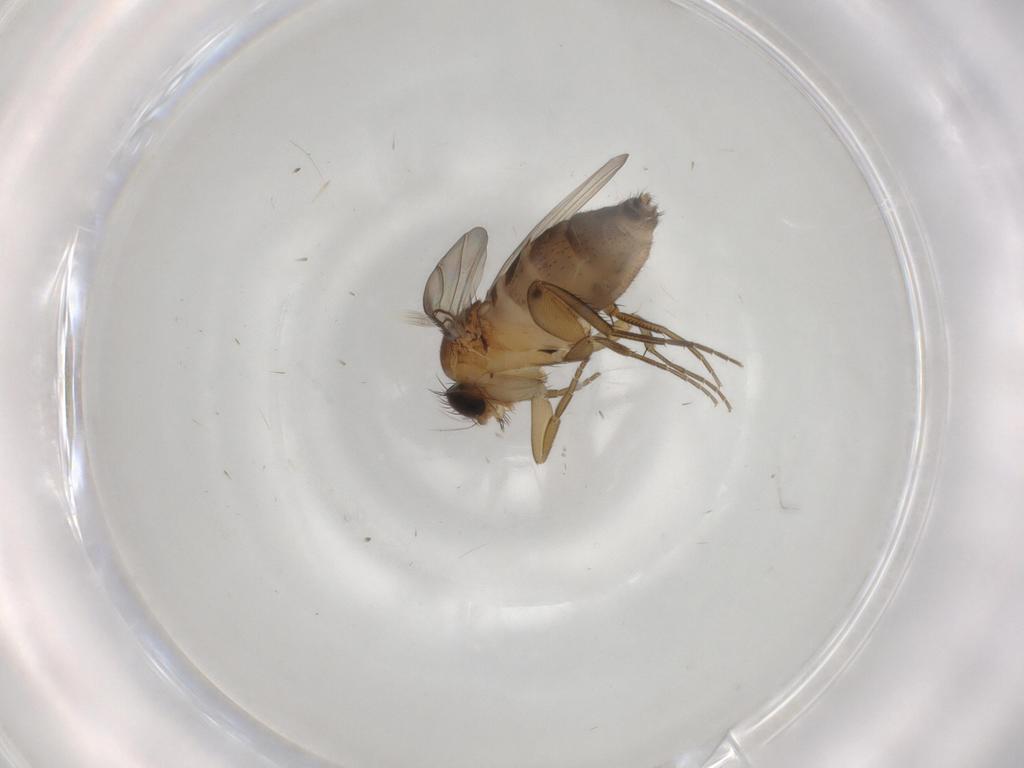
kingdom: Animalia
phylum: Arthropoda
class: Insecta
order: Diptera
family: Phoridae
